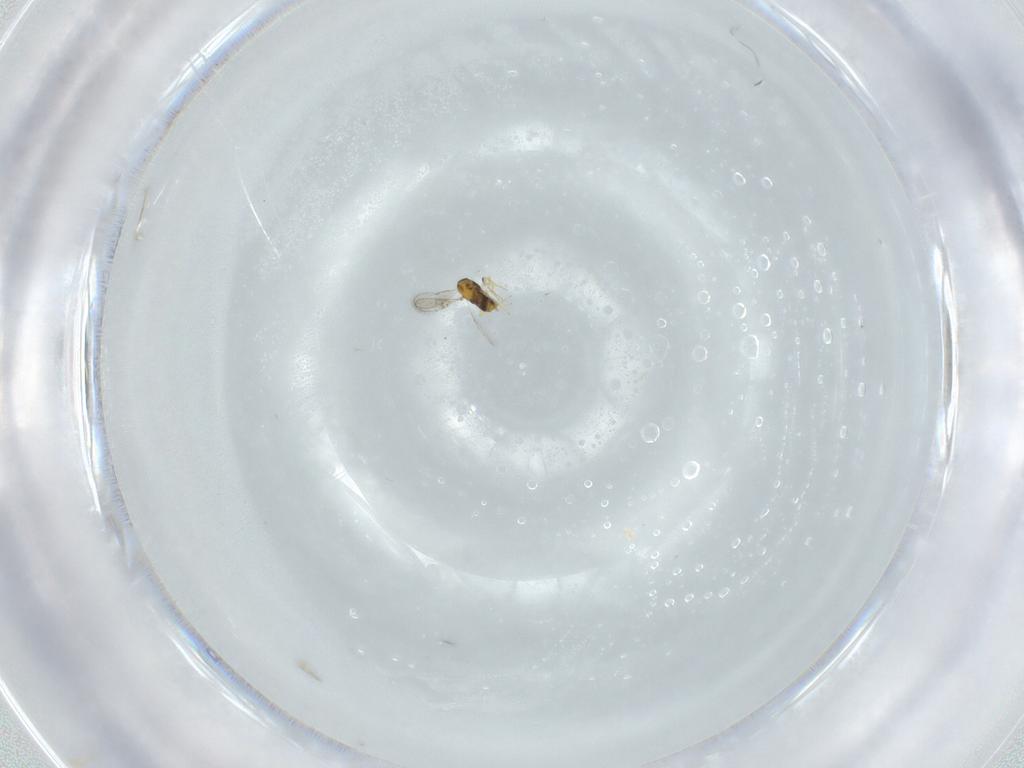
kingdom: Animalia
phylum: Arthropoda
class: Insecta
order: Hymenoptera
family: Aphelinidae
